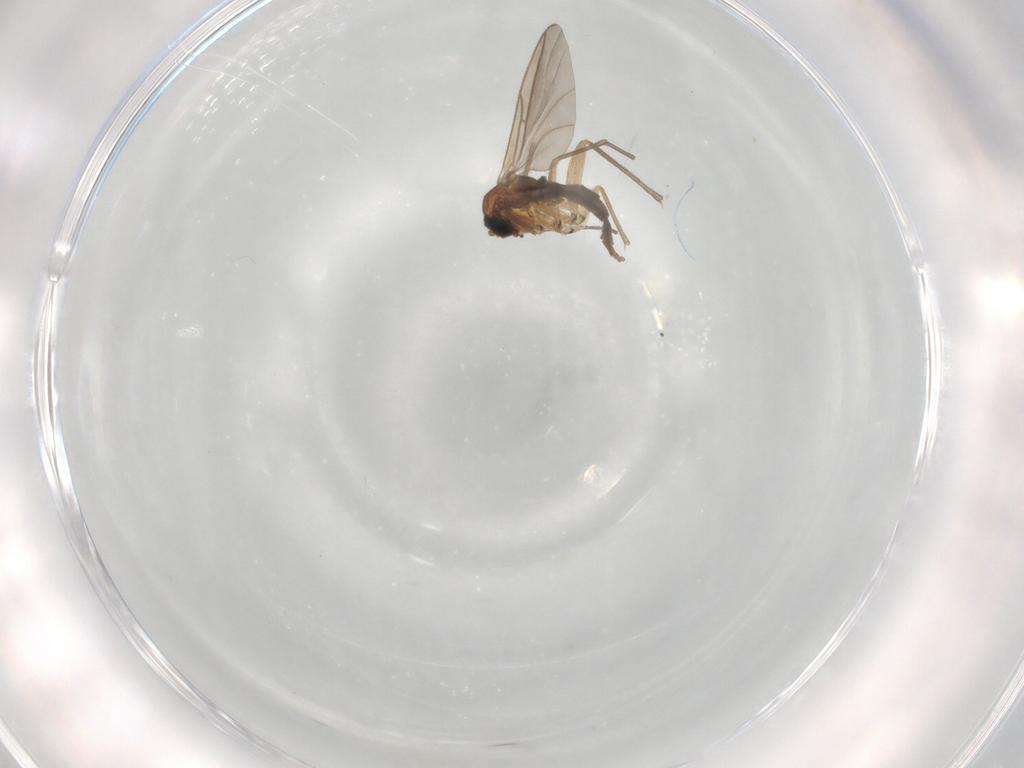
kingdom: Animalia
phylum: Arthropoda
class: Insecta
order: Diptera
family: Sciaridae
